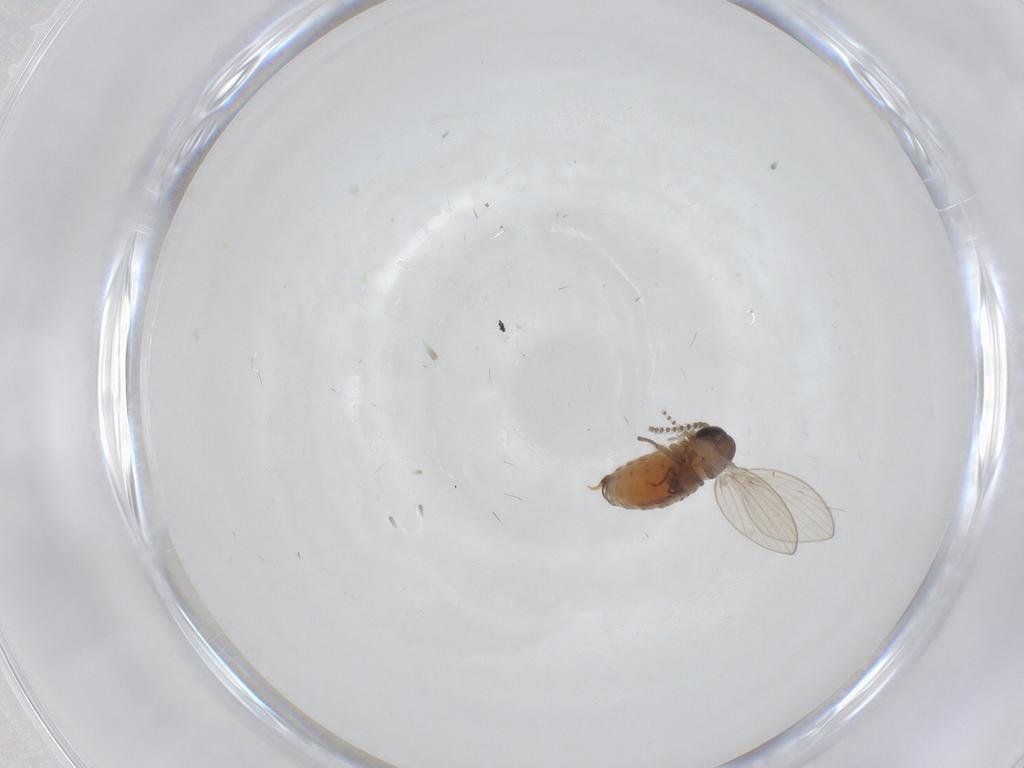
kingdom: Animalia
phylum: Arthropoda
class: Insecta
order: Diptera
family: Psychodidae
